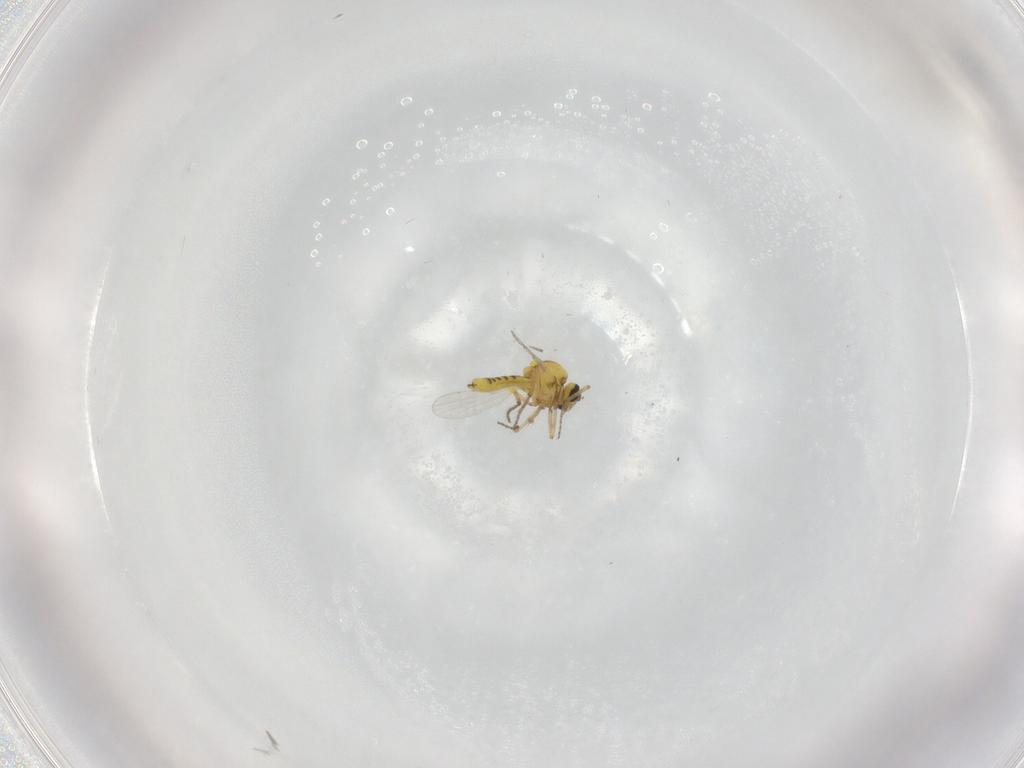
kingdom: Animalia
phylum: Arthropoda
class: Insecta
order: Diptera
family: Ceratopogonidae
